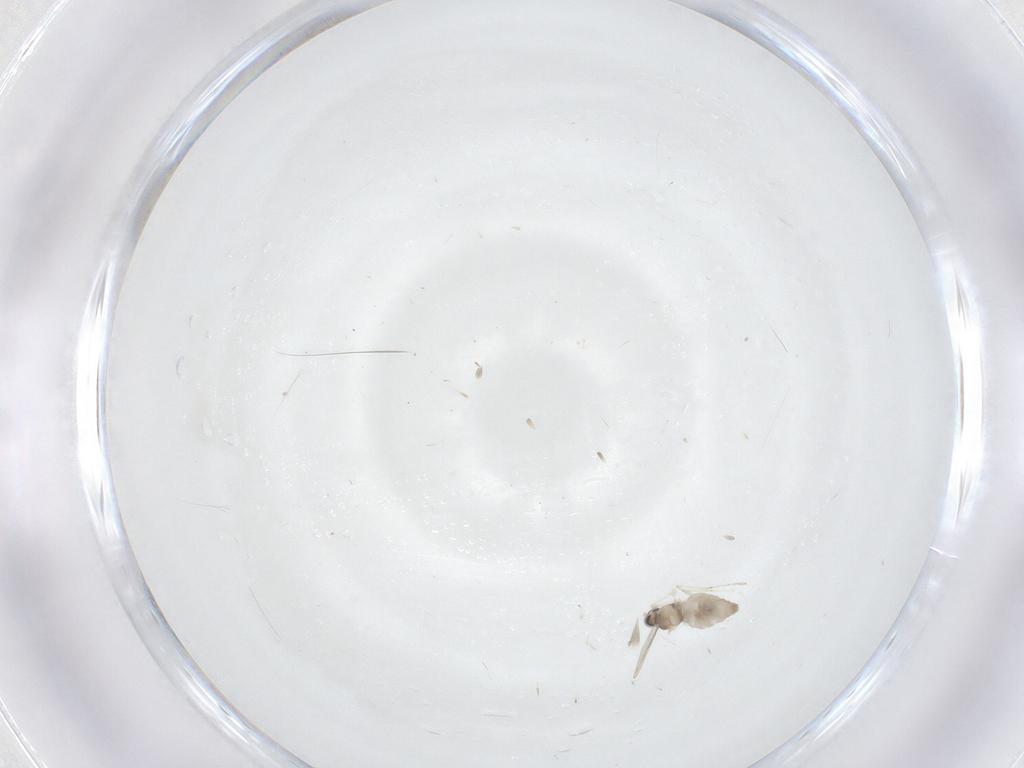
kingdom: Animalia
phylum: Arthropoda
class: Insecta
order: Diptera
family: Cecidomyiidae
